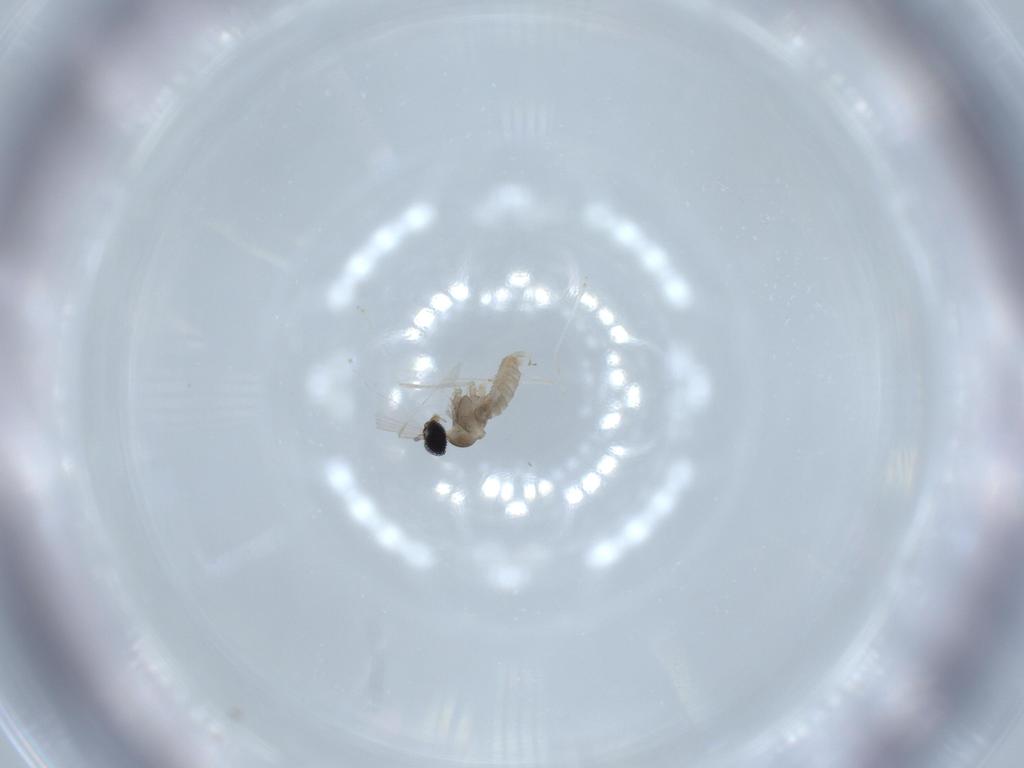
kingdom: Animalia
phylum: Arthropoda
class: Insecta
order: Diptera
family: Cecidomyiidae
